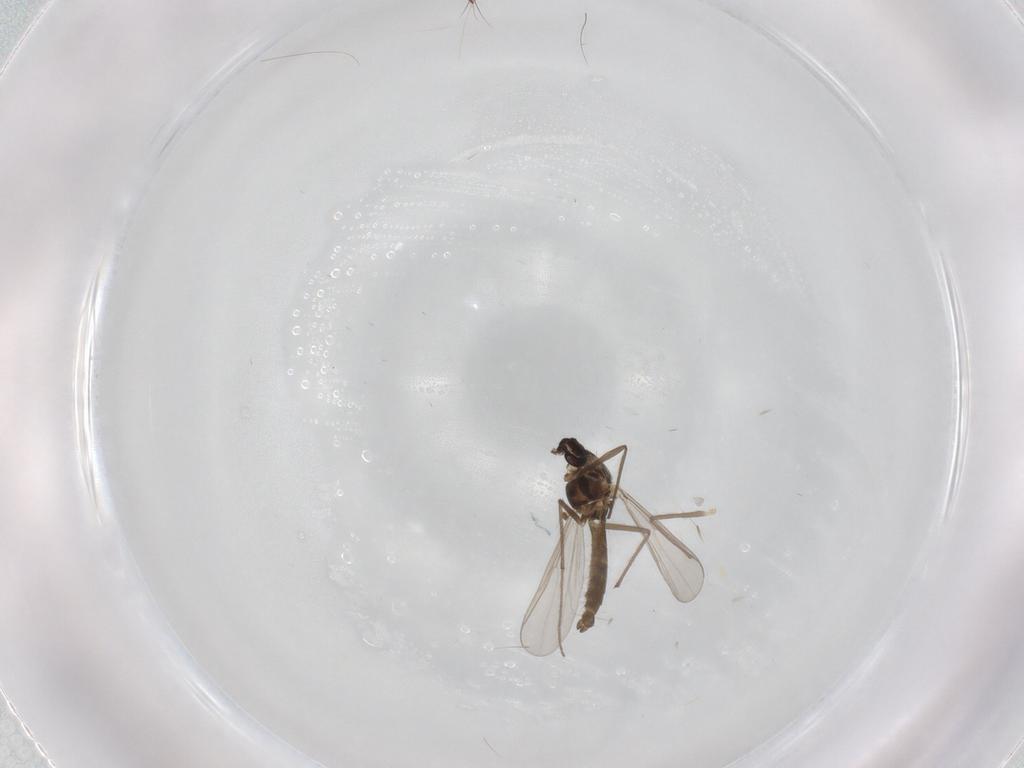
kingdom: Animalia
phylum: Arthropoda
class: Insecta
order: Diptera
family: Chironomidae
